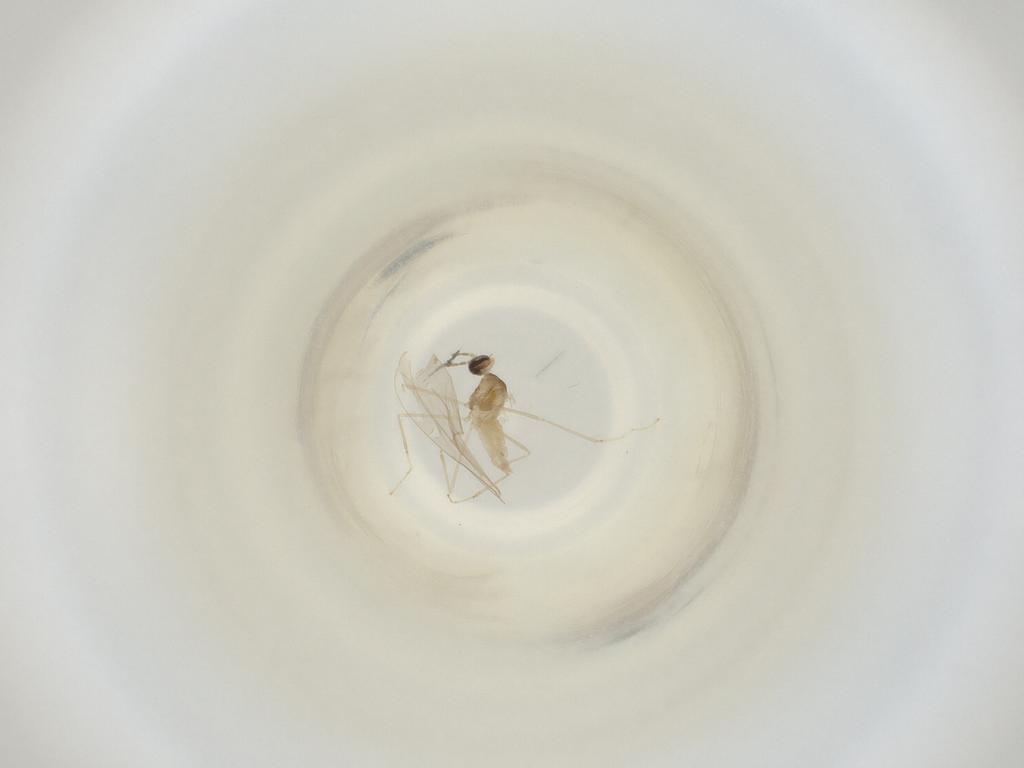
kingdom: Animalia
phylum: Arthropoda
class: Insecta
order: Diptera
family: Cecidomyiidae
